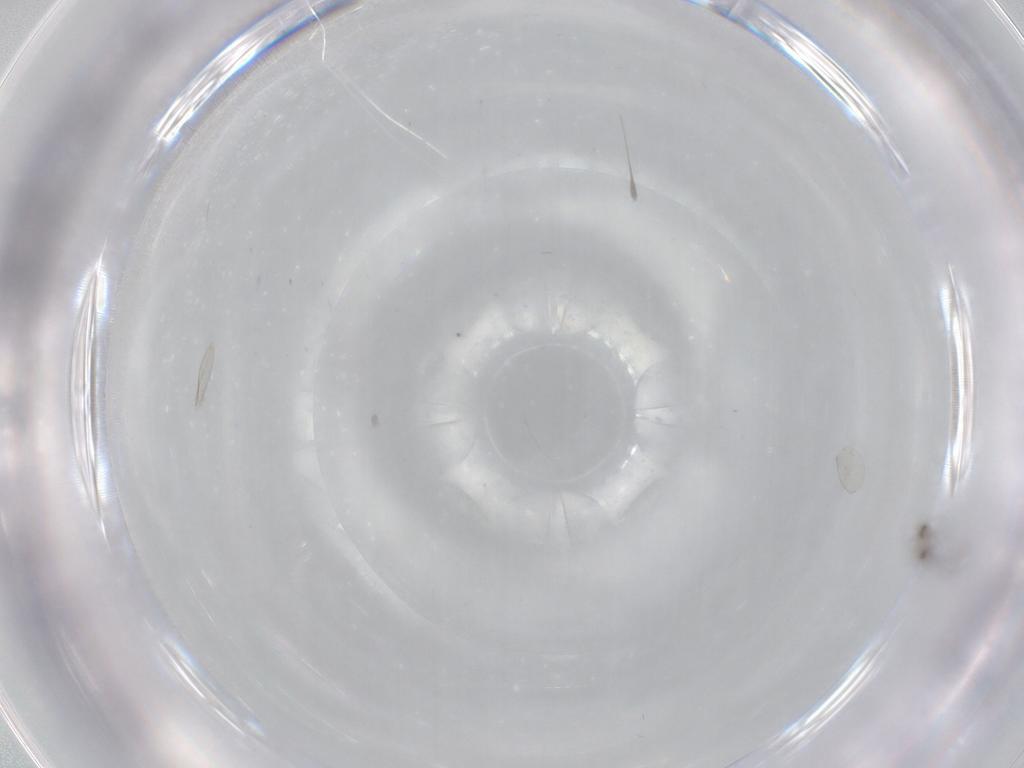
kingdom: Animalia
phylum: Arthropoda
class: Insecta
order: Diptera
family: Cecidomyiidae
